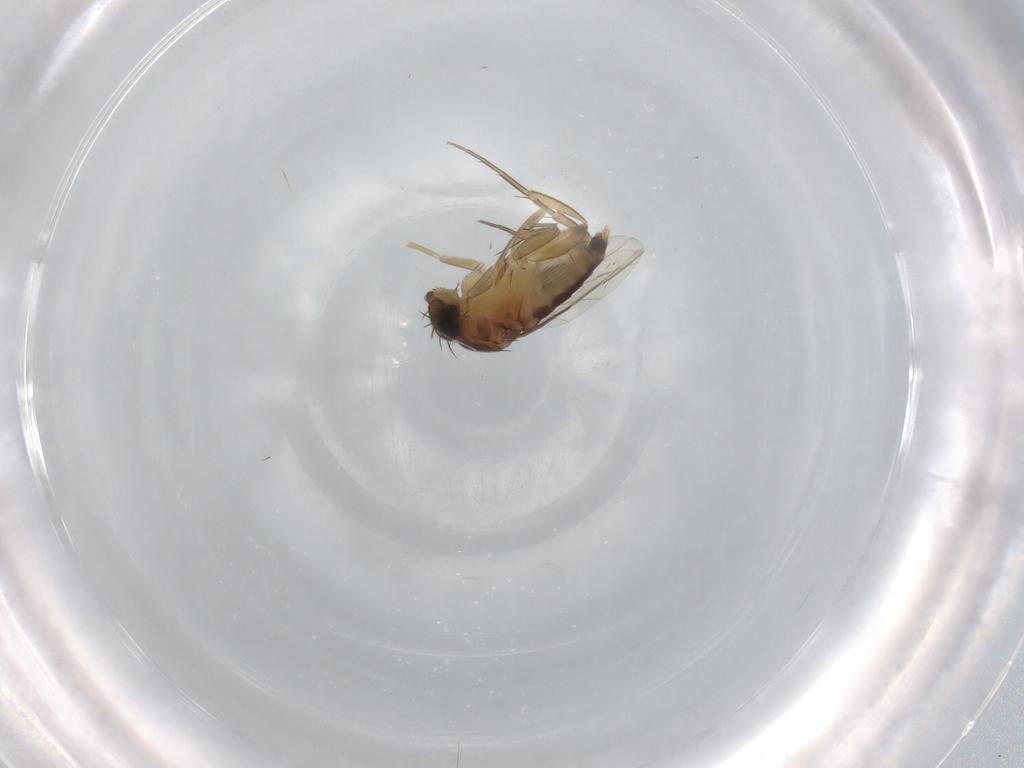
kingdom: Animalia
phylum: Arthropoda
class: Insecta
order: Diptera
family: Phoridae
